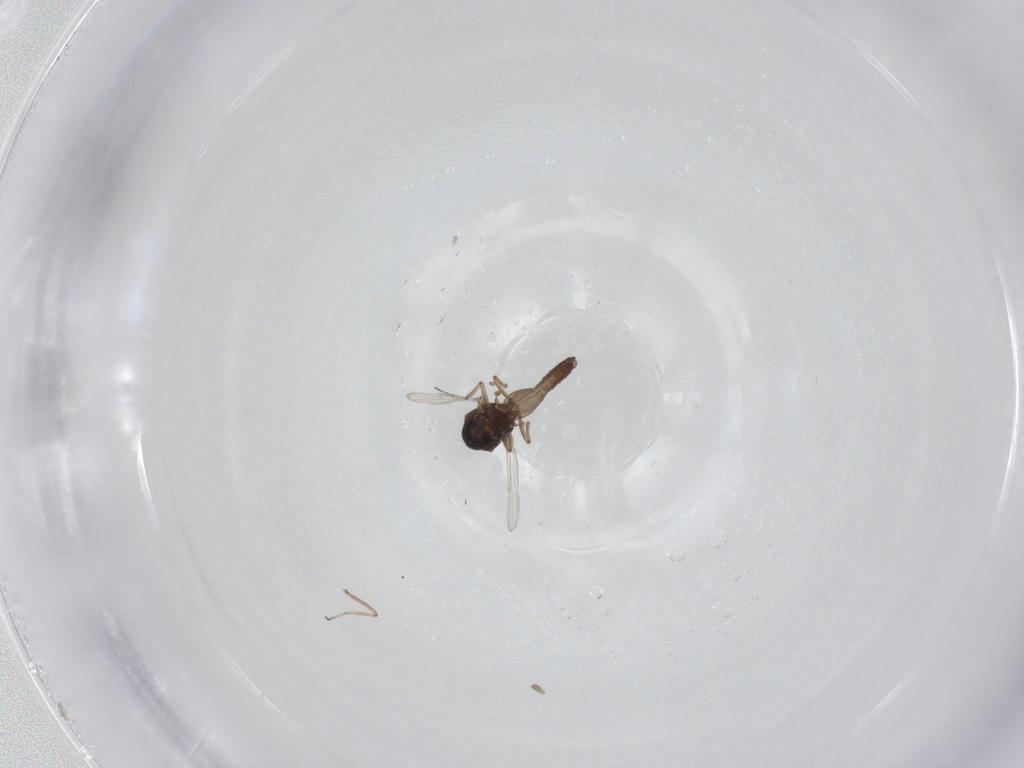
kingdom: Animalia
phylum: Arthropoda
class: Insecta
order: Diptera
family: Ceratopogonidae
